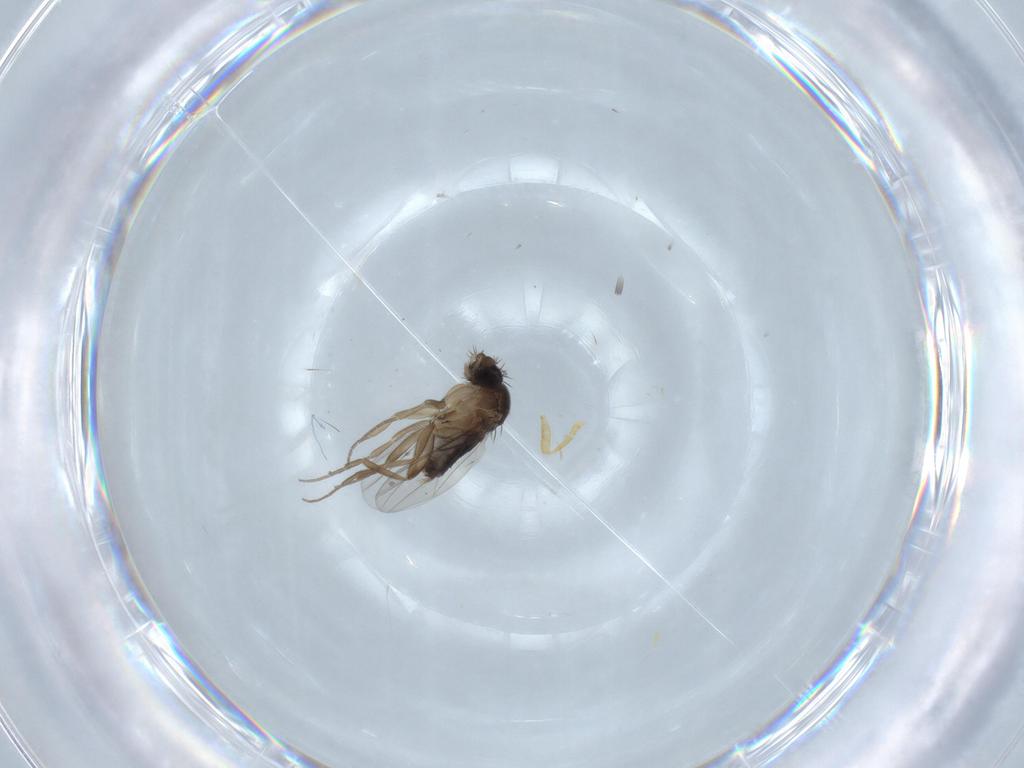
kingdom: Animalia
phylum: Arthropoda
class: Insecta
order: Diptera
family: Phoridae
